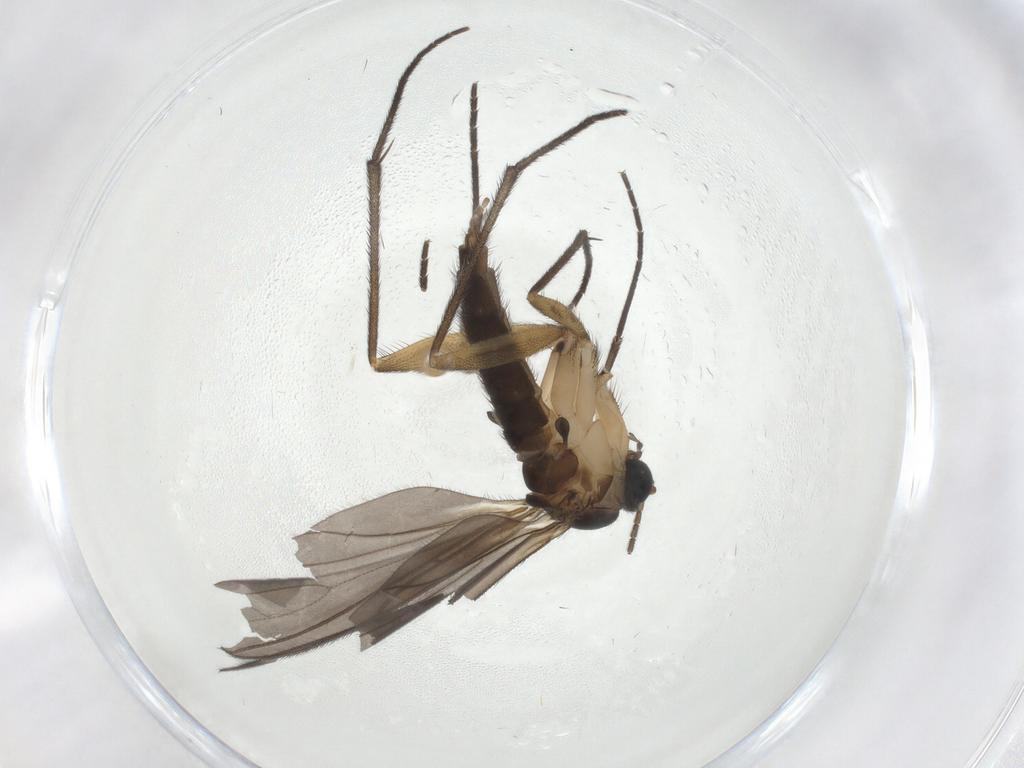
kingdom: Animalia
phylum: Arthropoda
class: Insecta
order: Diptera
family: Sciaridae
